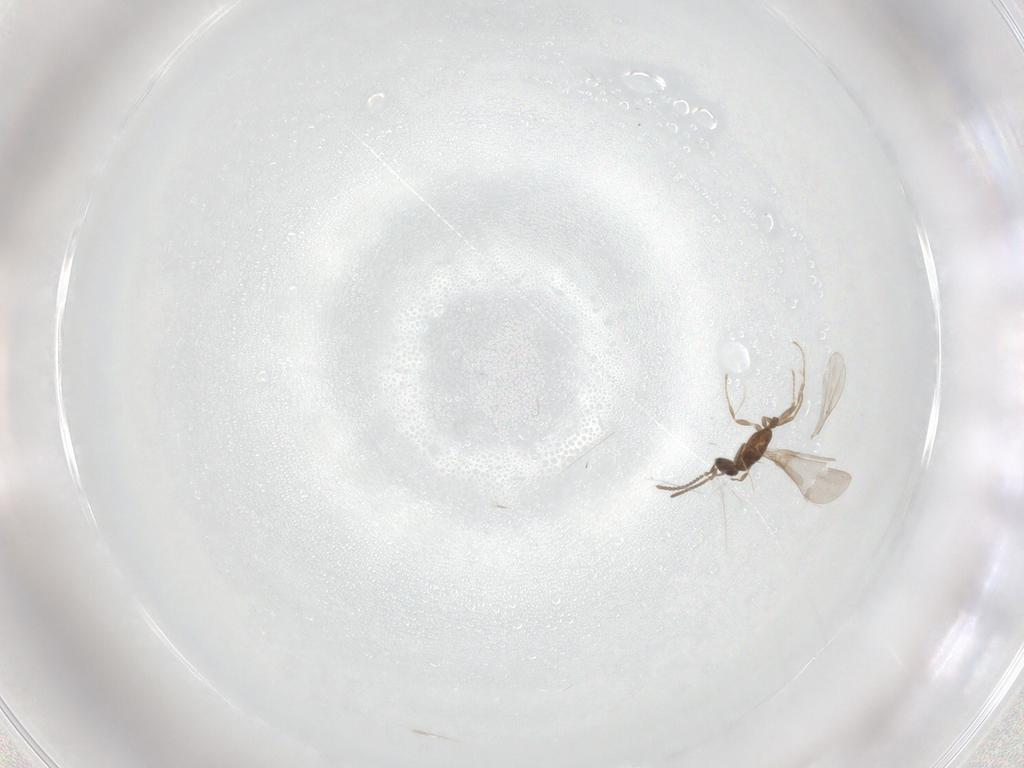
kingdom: Animalia
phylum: Arthropoda
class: Insecta
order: Hymenoptera
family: Formicidae
